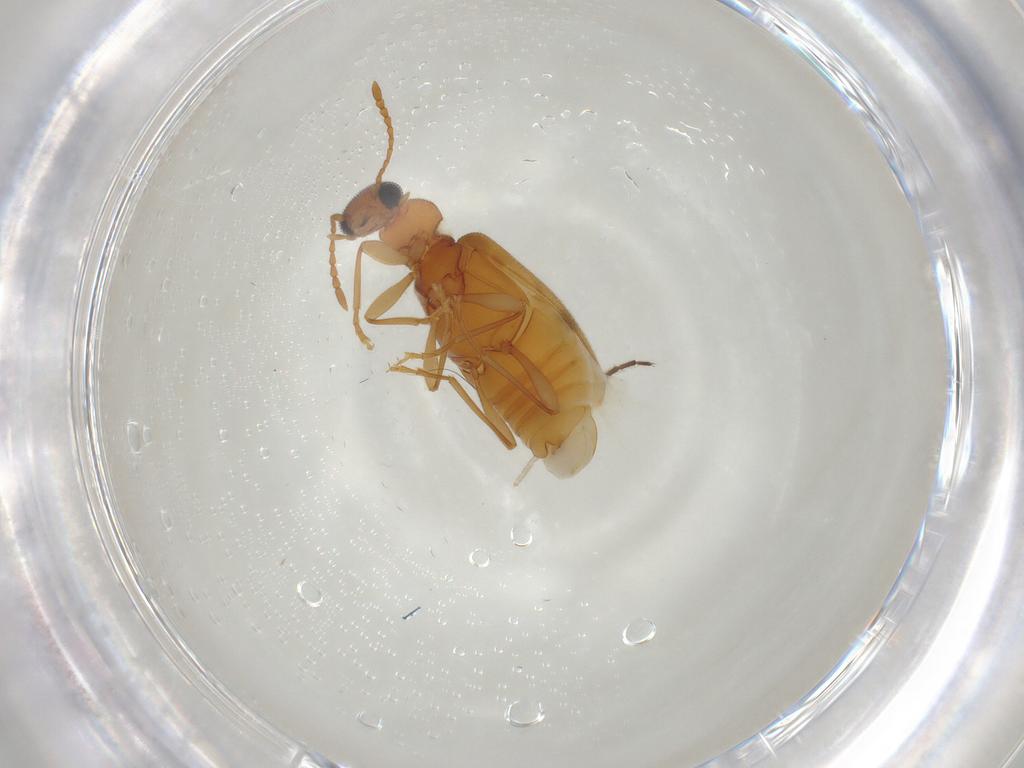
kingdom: Animalia
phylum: Arthropoda
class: Insecta
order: Coleoptera
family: Anthicidae
